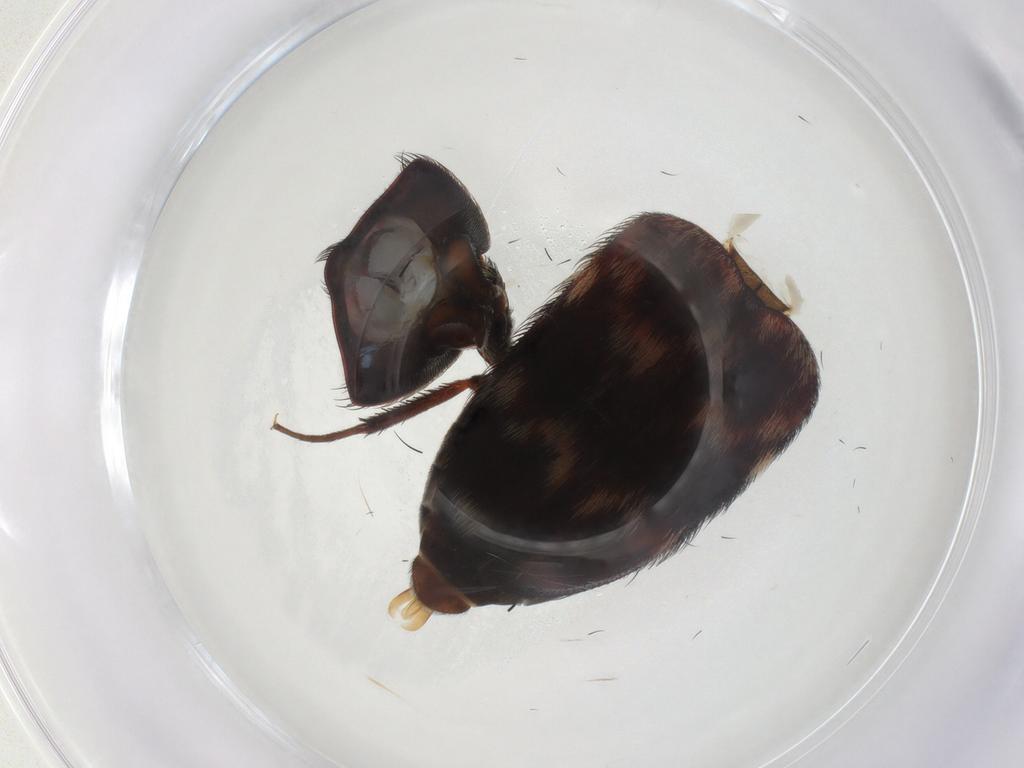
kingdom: Animalia
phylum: Arthropoda
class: Insecta
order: Coleoptera
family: Dermestidae
